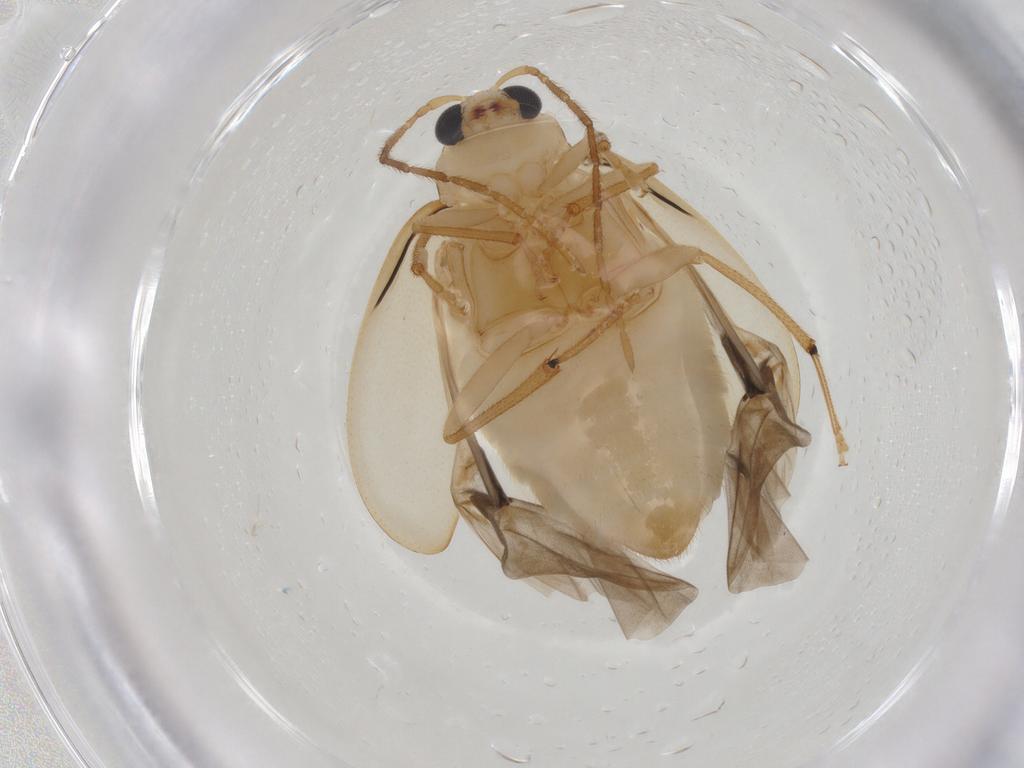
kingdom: Animalia
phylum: Arthropoda
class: Insecta
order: Coleoptera
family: Chrysomelidae
